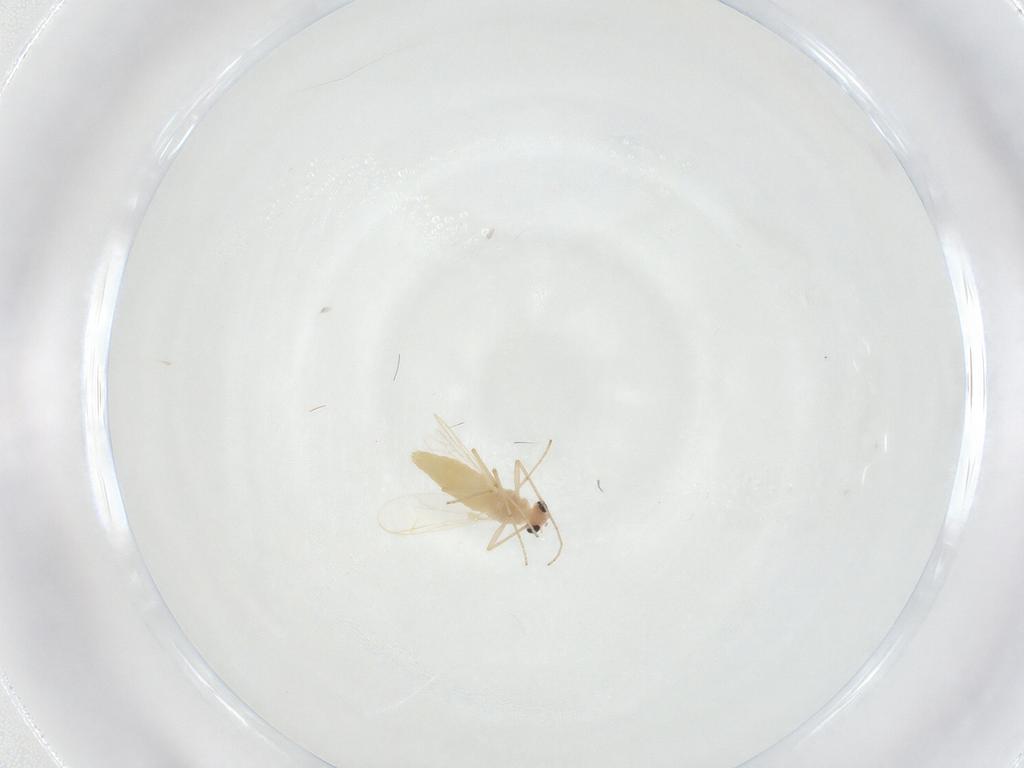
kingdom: Animalia
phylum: Arthropoda
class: Insecta
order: Diptera
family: Chironomidae
